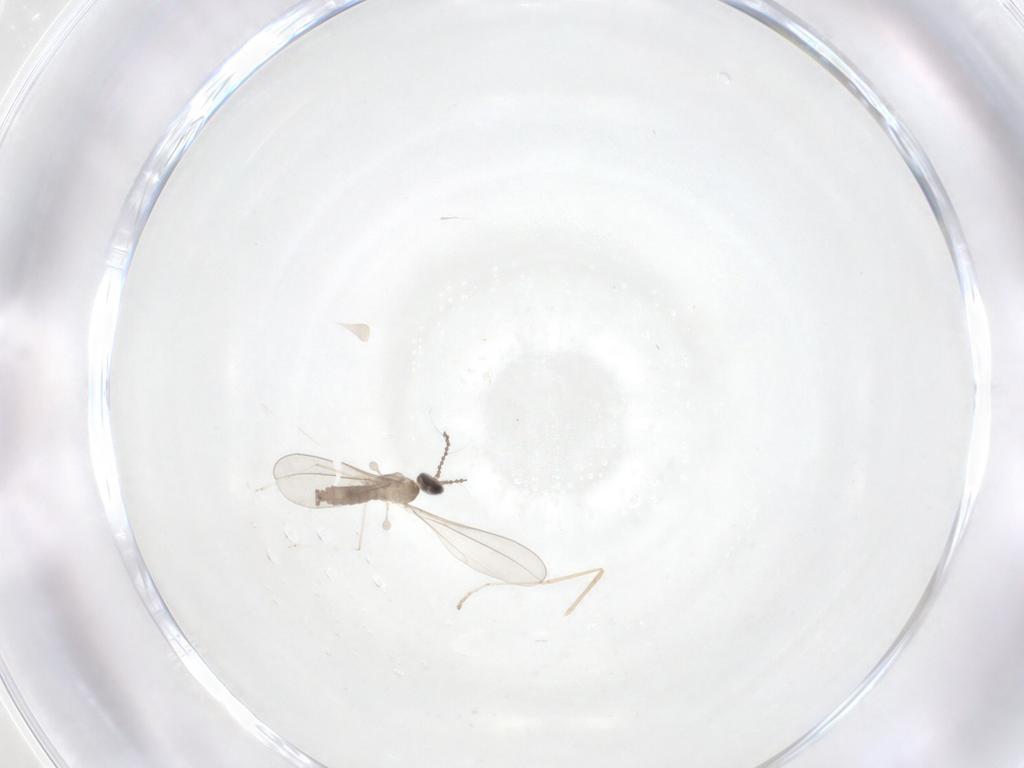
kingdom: Animalia
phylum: Arthropoda
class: Insecta
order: Diptera
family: Cecidomyiidae
